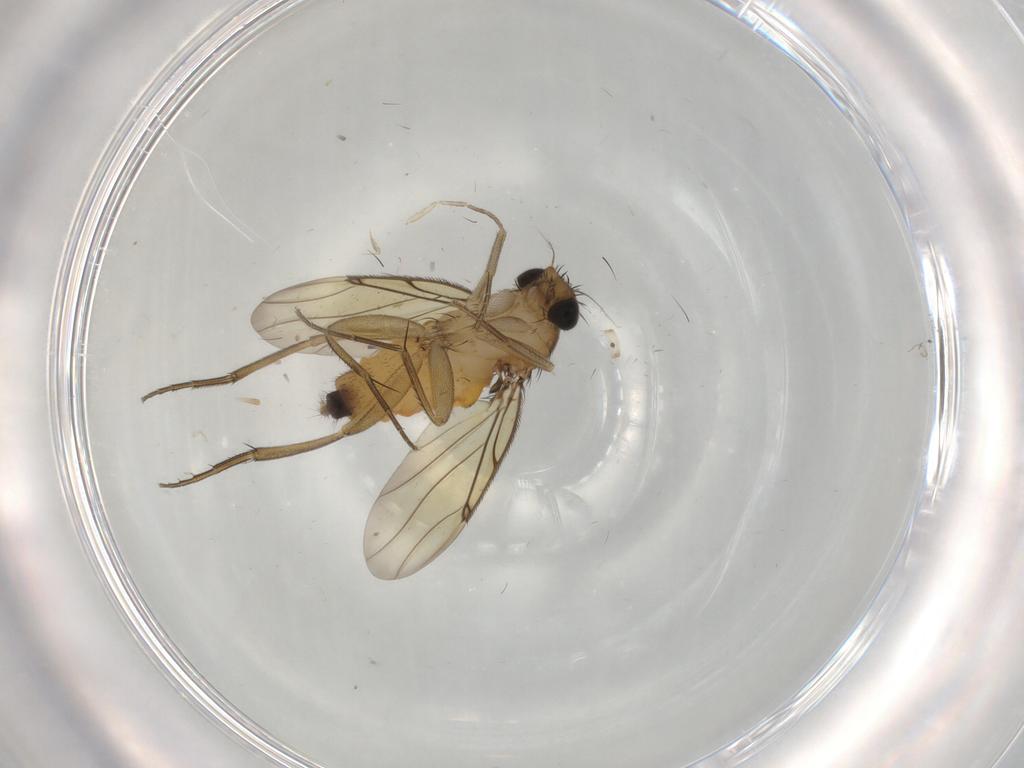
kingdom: Animalia
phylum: Arthropoda
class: Insecta
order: Diptera
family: Phoridae
